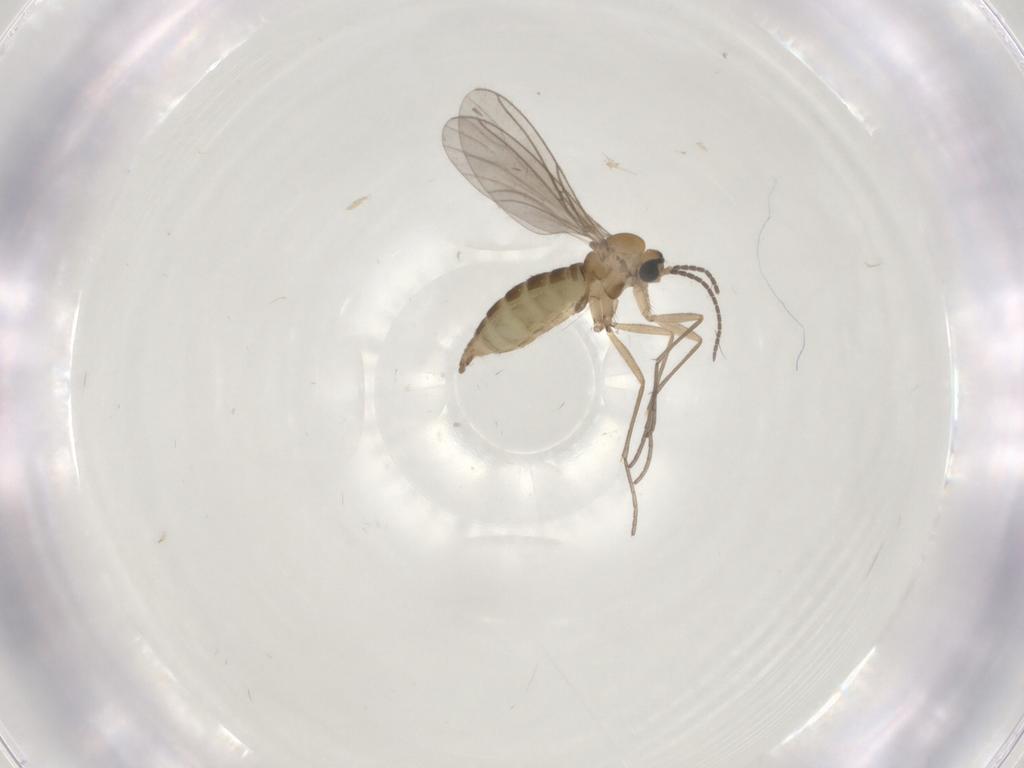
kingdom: Animalia
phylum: Arthropoda
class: Insecta
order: Diptera
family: Sciaridae
